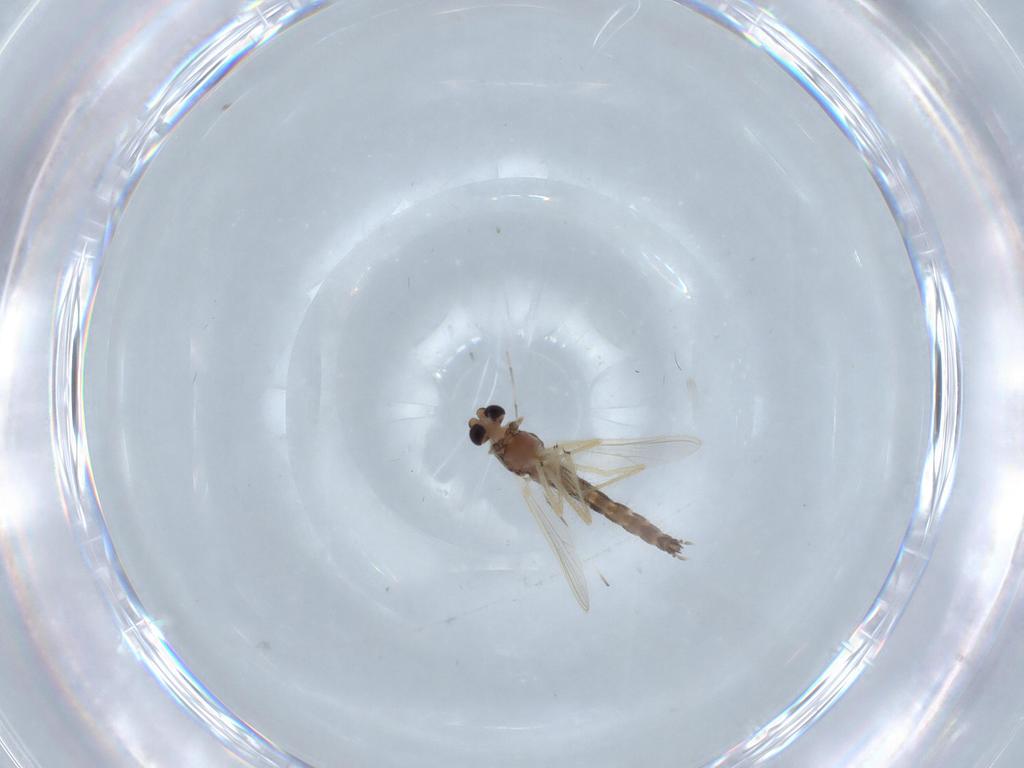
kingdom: Animalia
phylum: Arthropoda
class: Insecta
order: Diptera
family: Chironomidae
